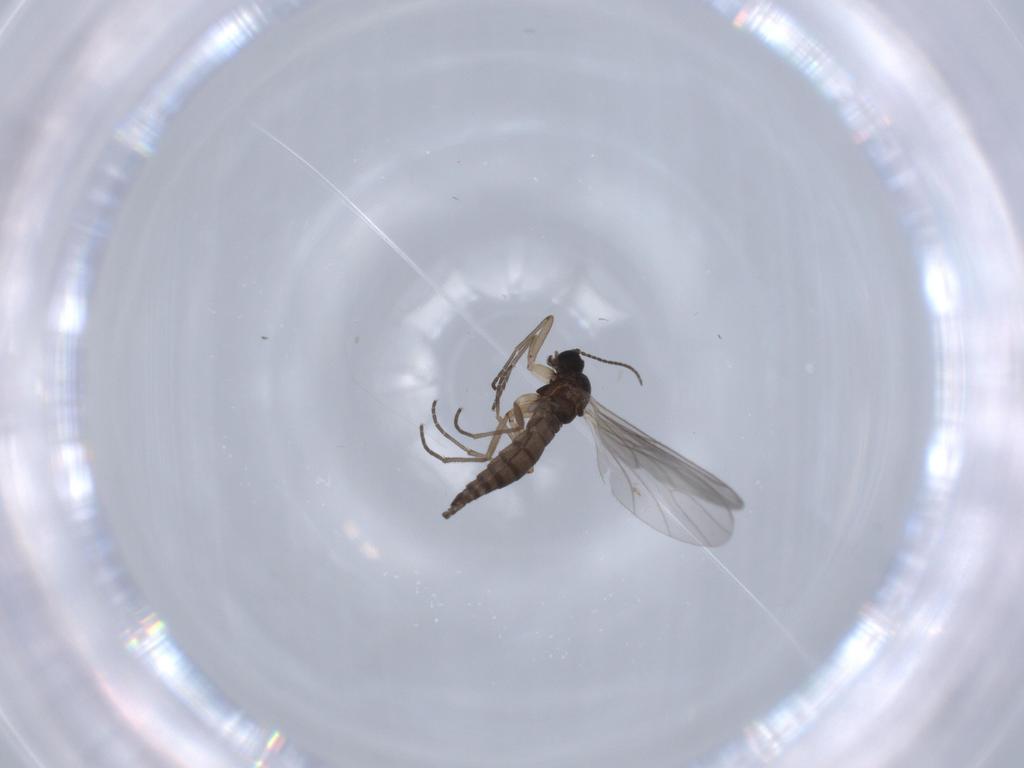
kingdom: Animalia
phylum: Arthropoda
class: Insecta
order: Diptera
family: Mycetophilidae
